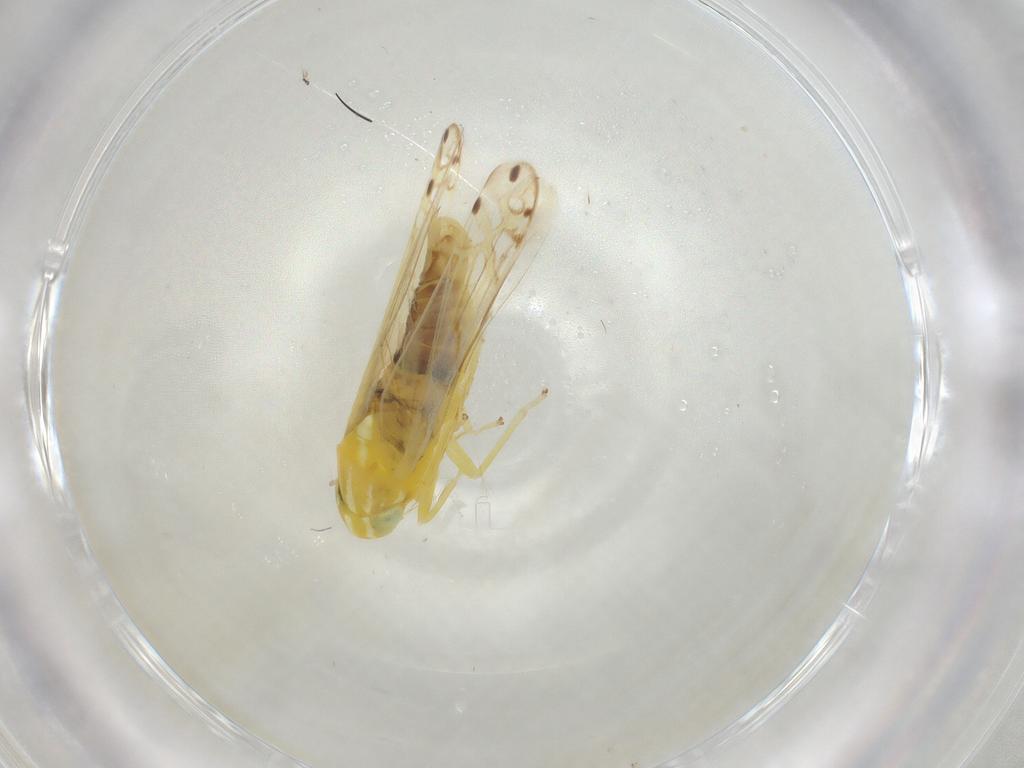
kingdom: Animalia
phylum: Arthropoda
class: Insecta
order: Hemiptera
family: Cicadellidae
